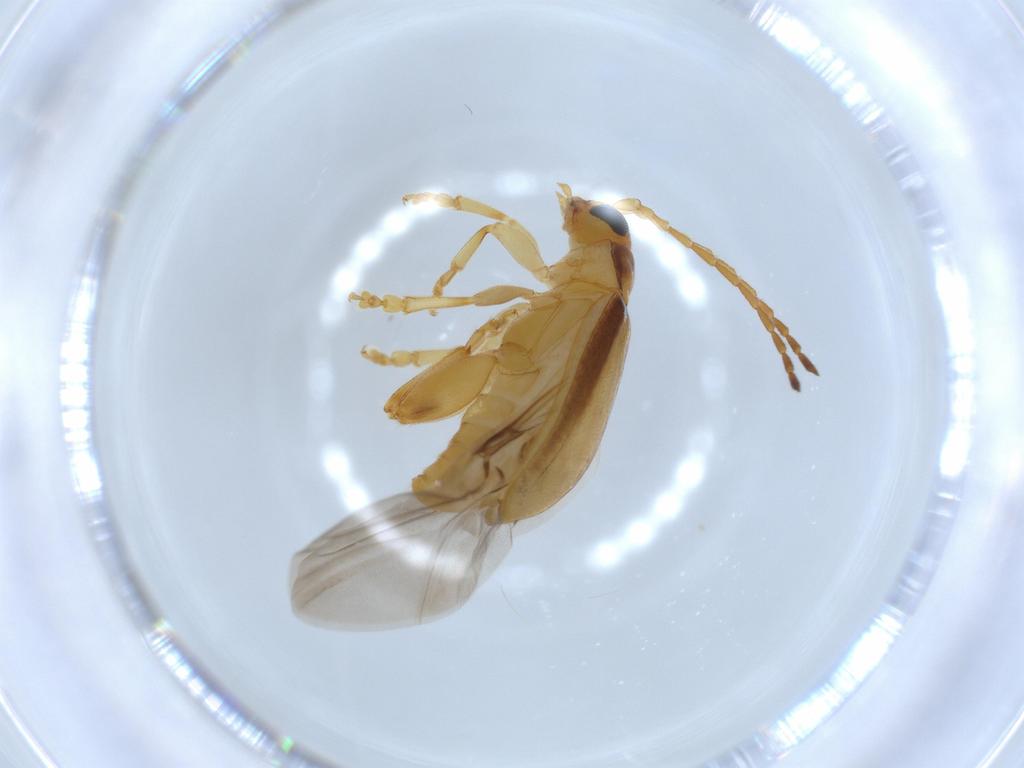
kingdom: Animalia
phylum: Arthropoda
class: Insecta
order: Coleoptera
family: Chrysomelidae
